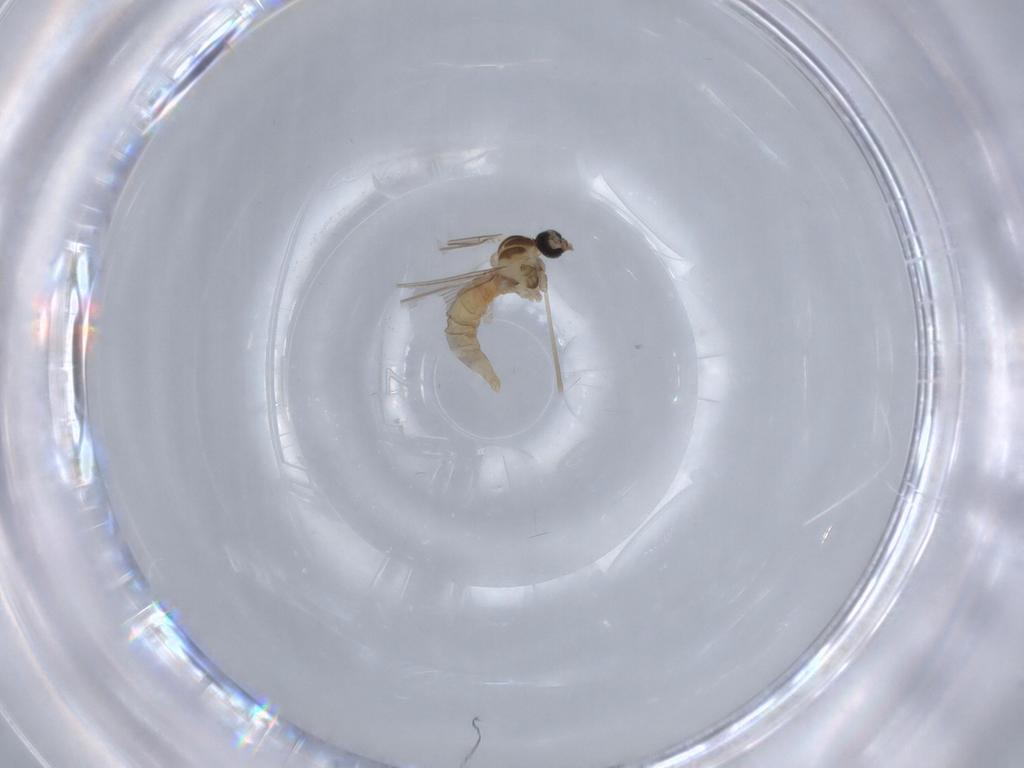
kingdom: Animalia
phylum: Arthropoda
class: Insecta
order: Diptera
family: Cecidomyiidae
